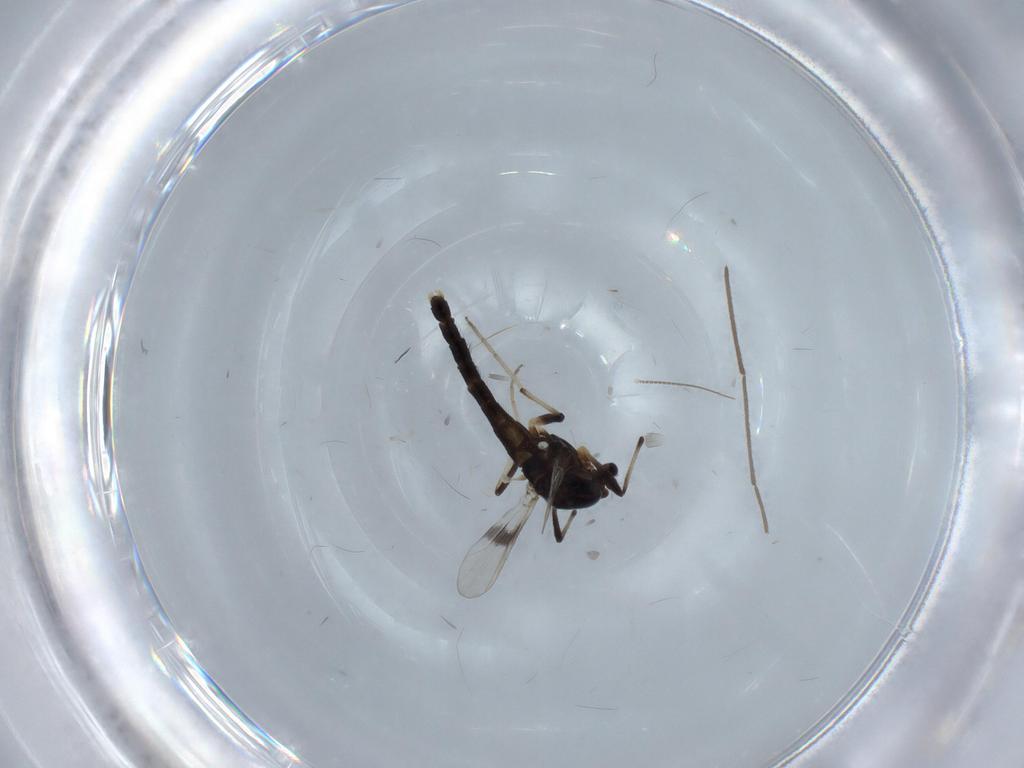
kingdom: Animalia
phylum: Arthropoda
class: Insecta
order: Diptera
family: Chironomidae
